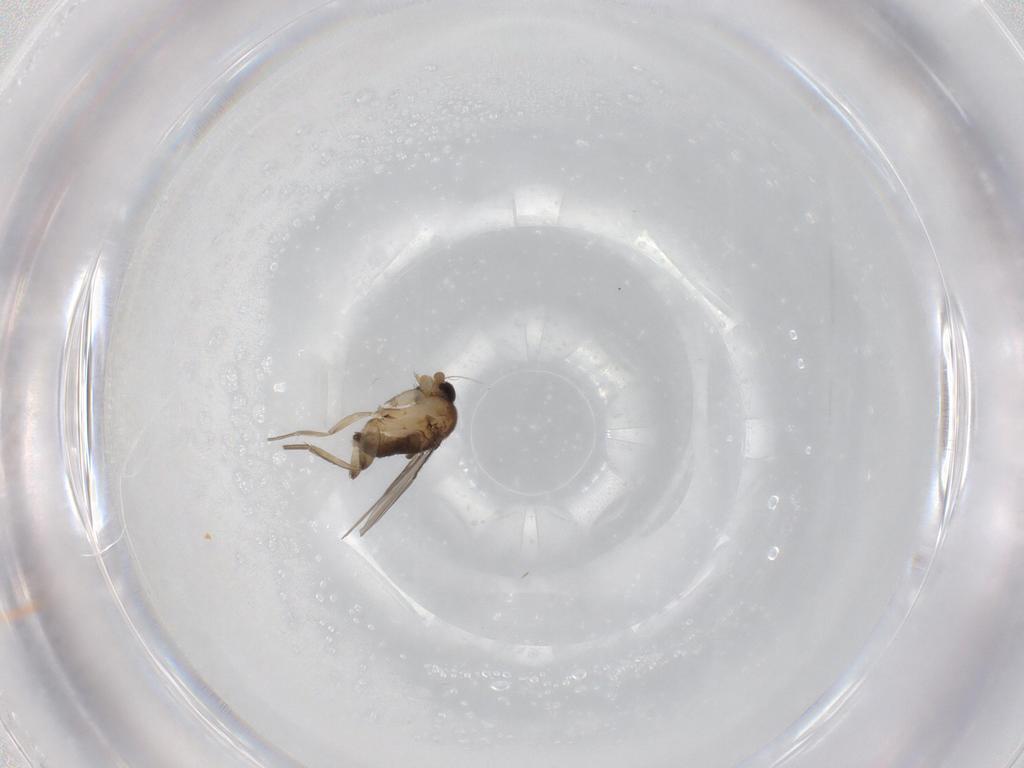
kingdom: Animalia
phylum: Arthropoda
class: Insecta
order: Diptera
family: Phoridae
